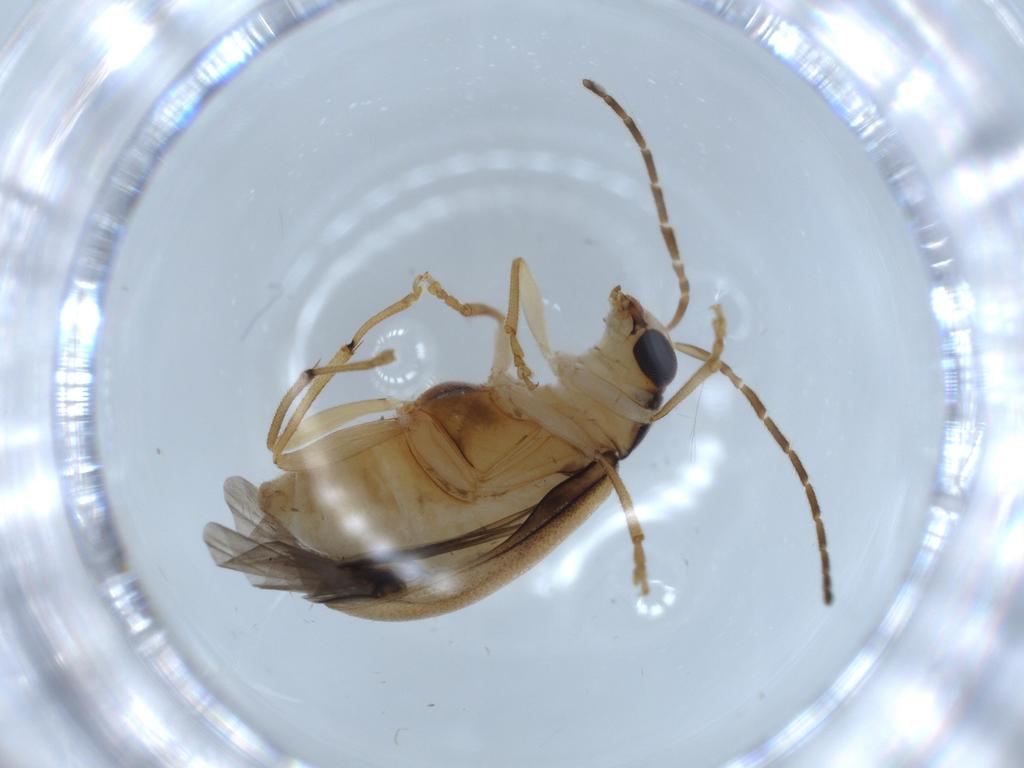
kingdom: Animalia
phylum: Arthropoda
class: Insecta
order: Coleoptera
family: Chrysomelidae
